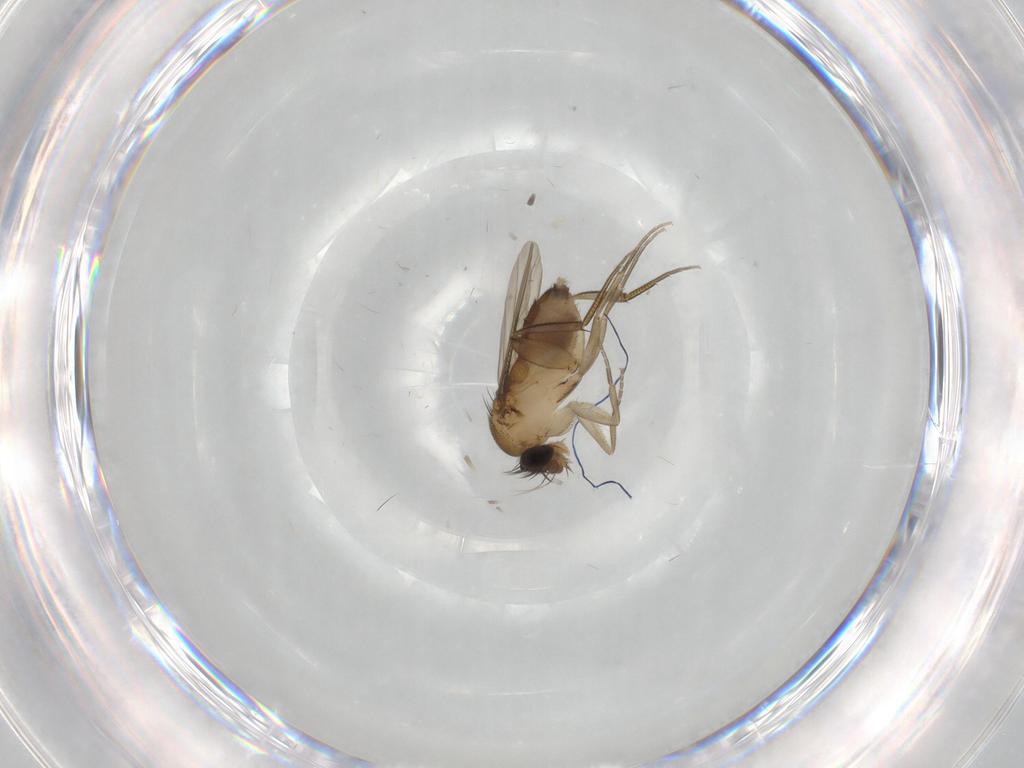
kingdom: Animalia
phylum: Arthropoda
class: Insecta
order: Diptera
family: Phoridae
